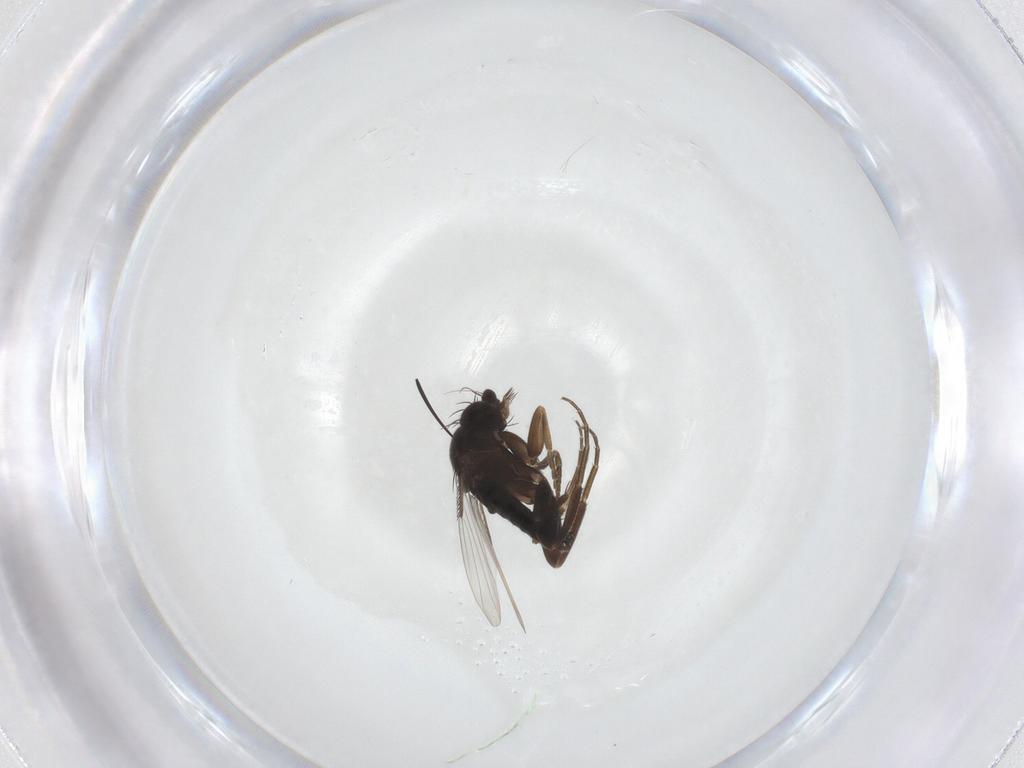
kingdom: Animalia
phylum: Arthropoda
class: Insecta
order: Diptera
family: Phoridae
